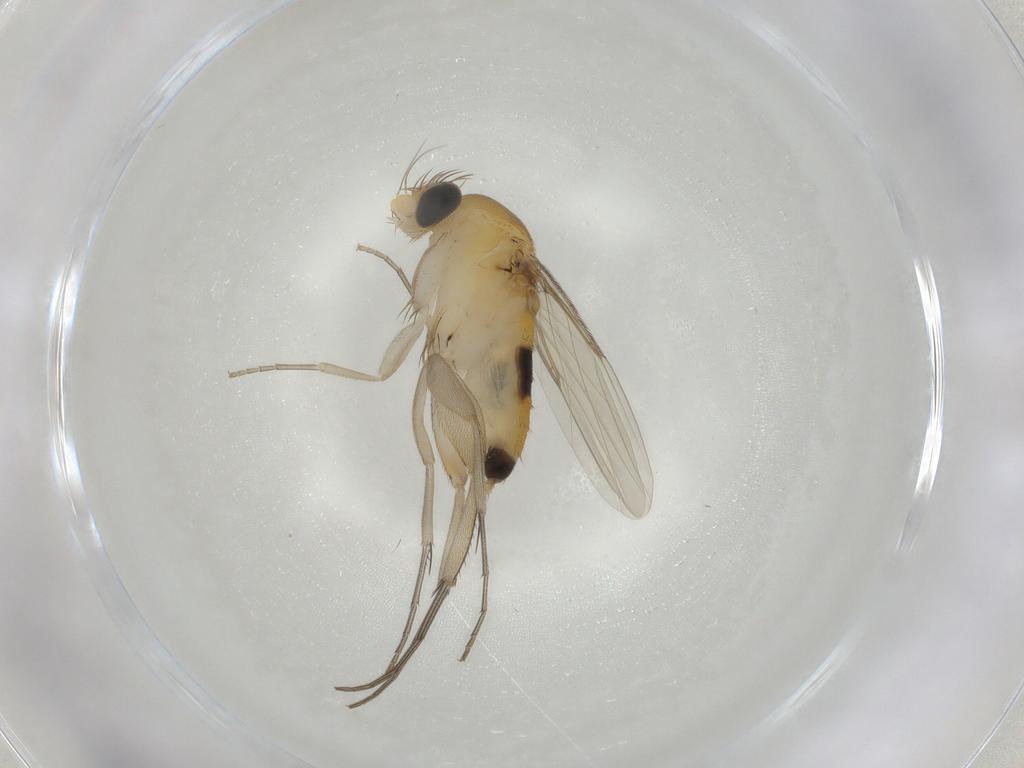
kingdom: Animalia
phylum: Arthropoda
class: Insecta
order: Diptera
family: Phoridae
